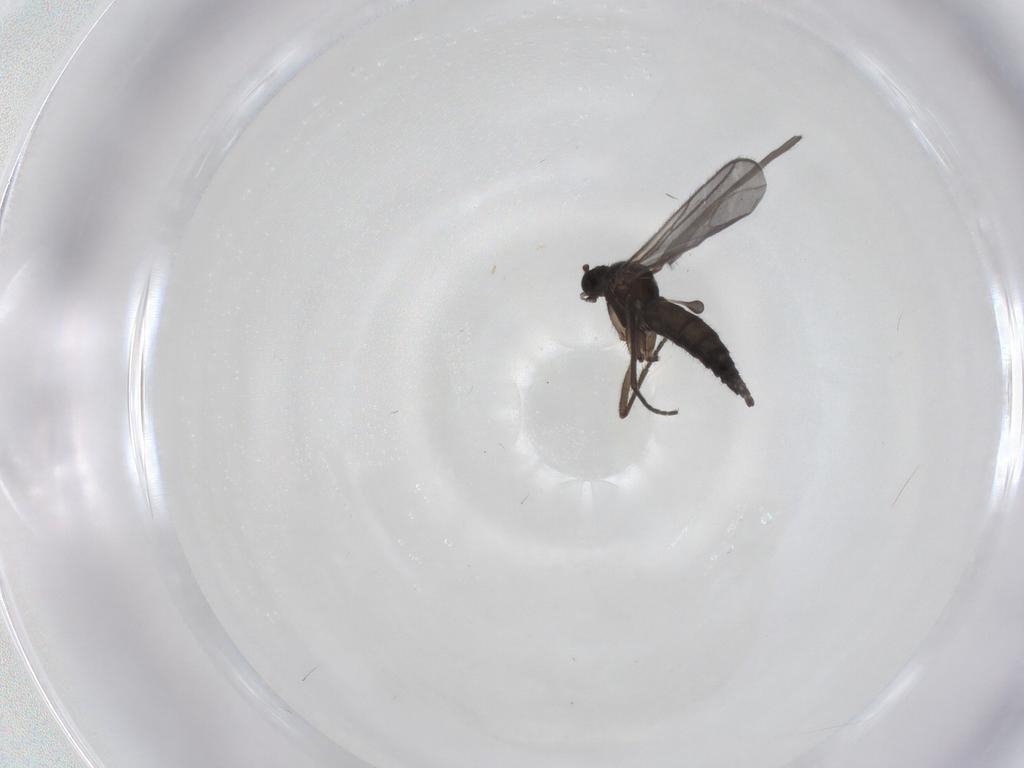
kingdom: Animalia
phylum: Arthropoda
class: Insecta
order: Diptera
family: Sciaridae
